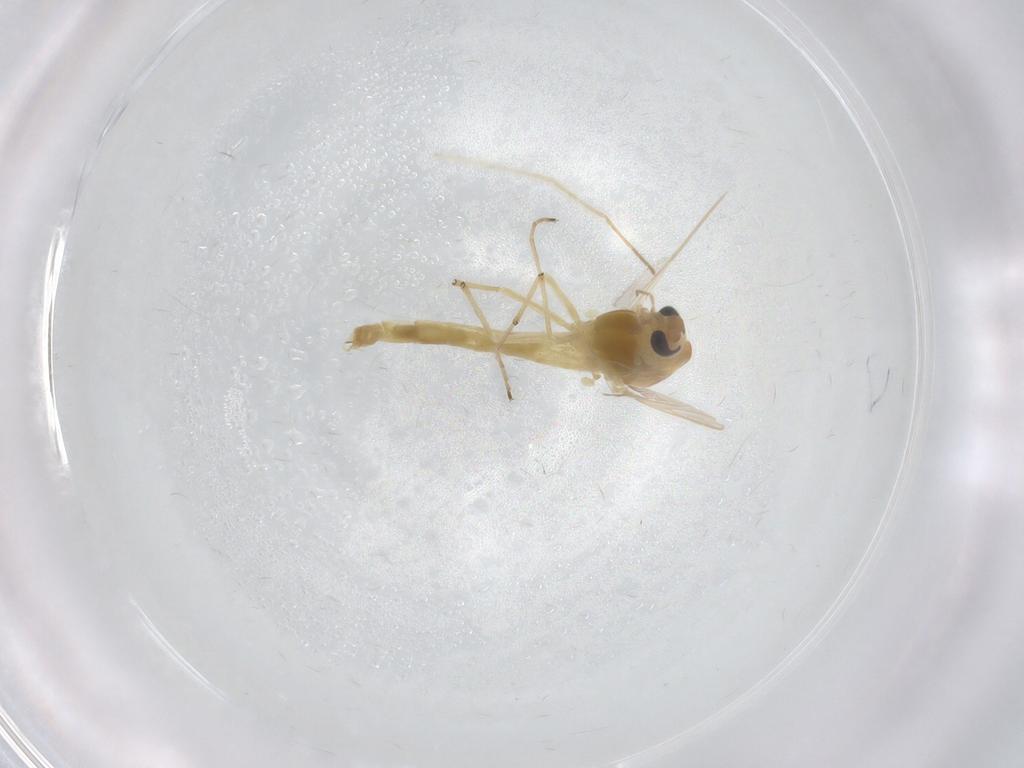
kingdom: Animalia
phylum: Arthropoda
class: Insecta
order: Diptera
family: Chironomidae
